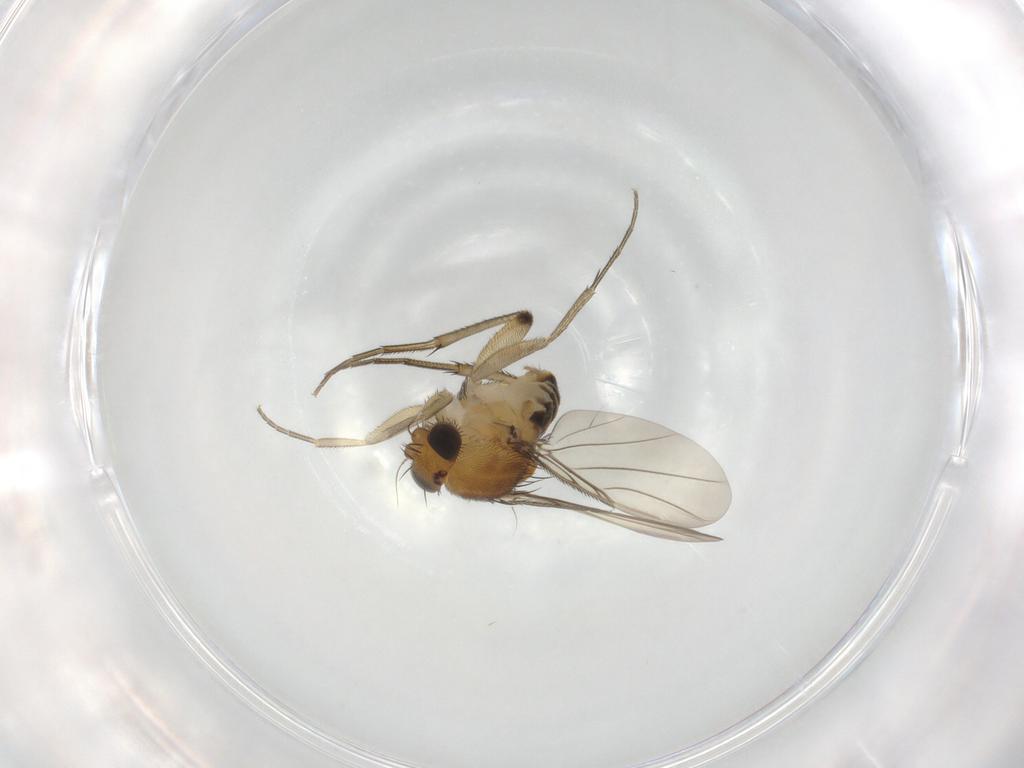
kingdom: Animalia
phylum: Arthropoda
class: Insecta
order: Diptera
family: Phoridae
